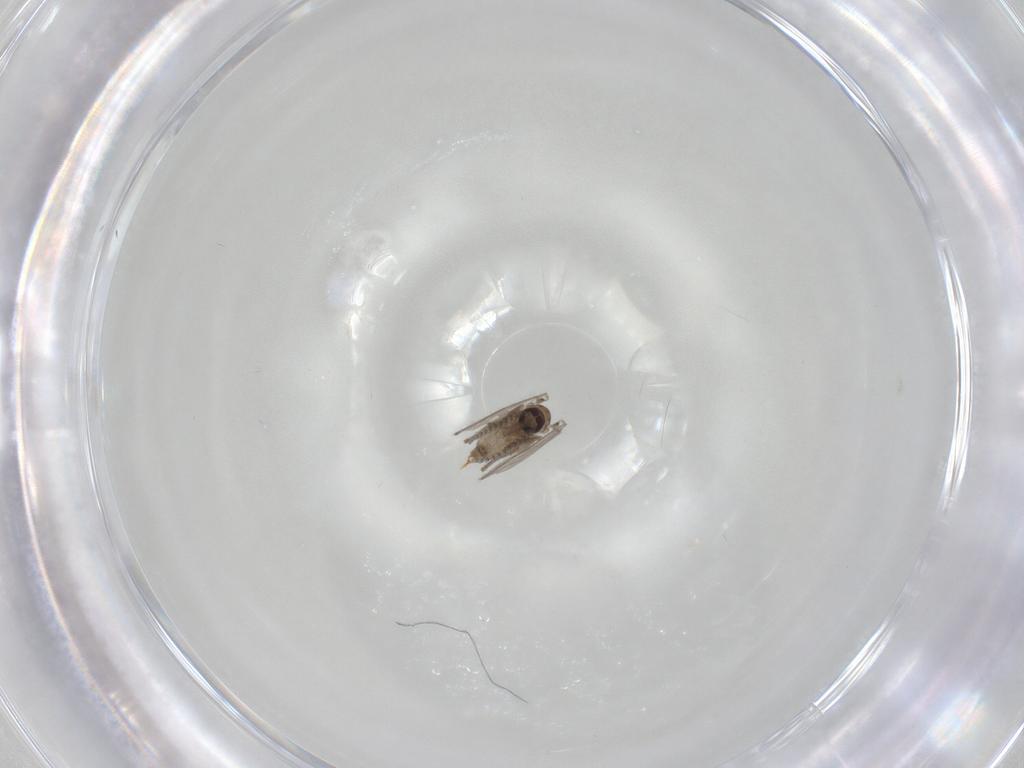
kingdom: Animalia
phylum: Arthropoda
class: Insecta
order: Diptera
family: Psychodidae
